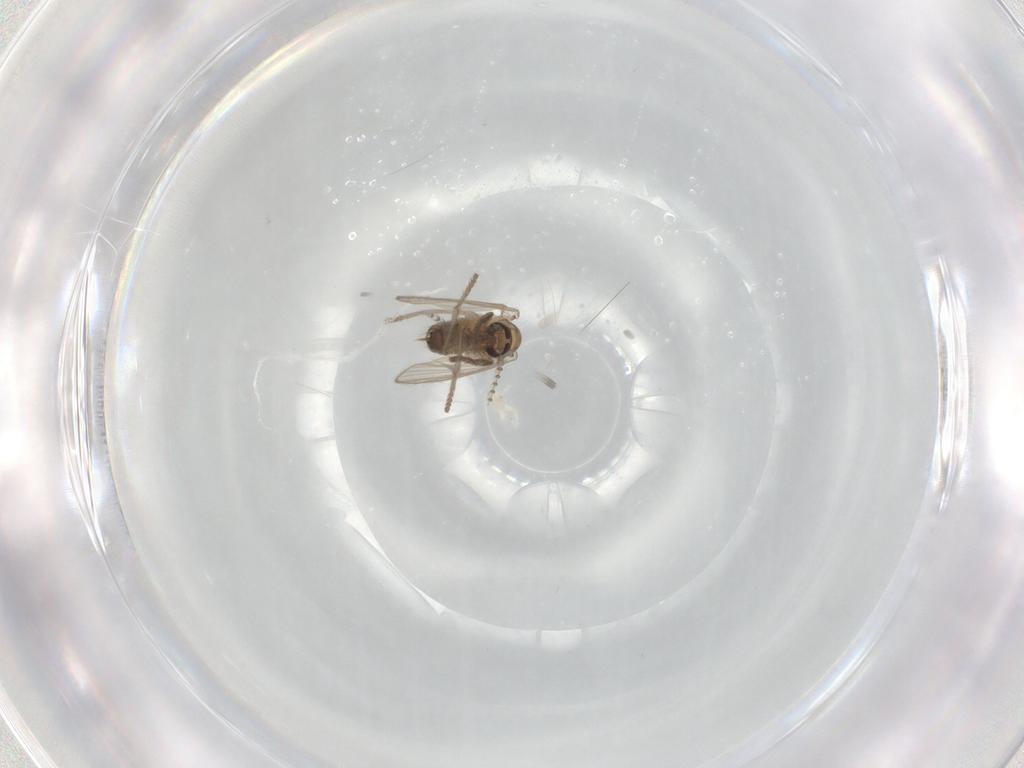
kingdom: Animalia
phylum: Arthropoda
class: Insecta
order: Diptera
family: Psychodidae
